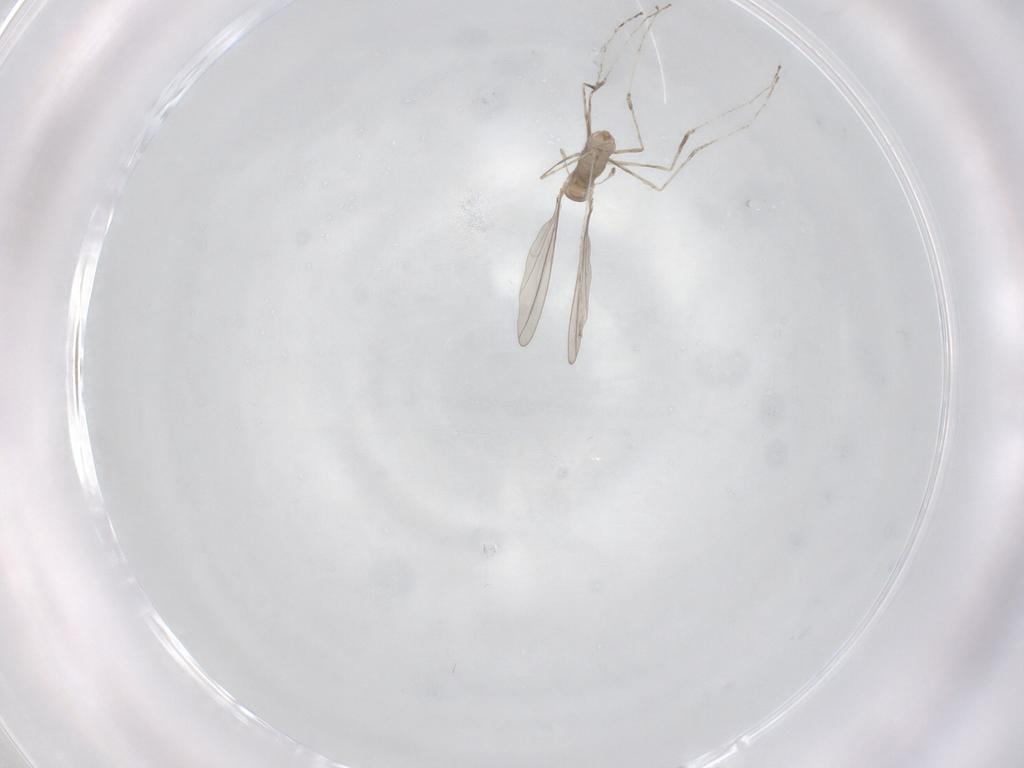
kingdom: Animalia
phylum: Arthropoda
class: Insecta
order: Diptera
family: Cecidomyiidae
